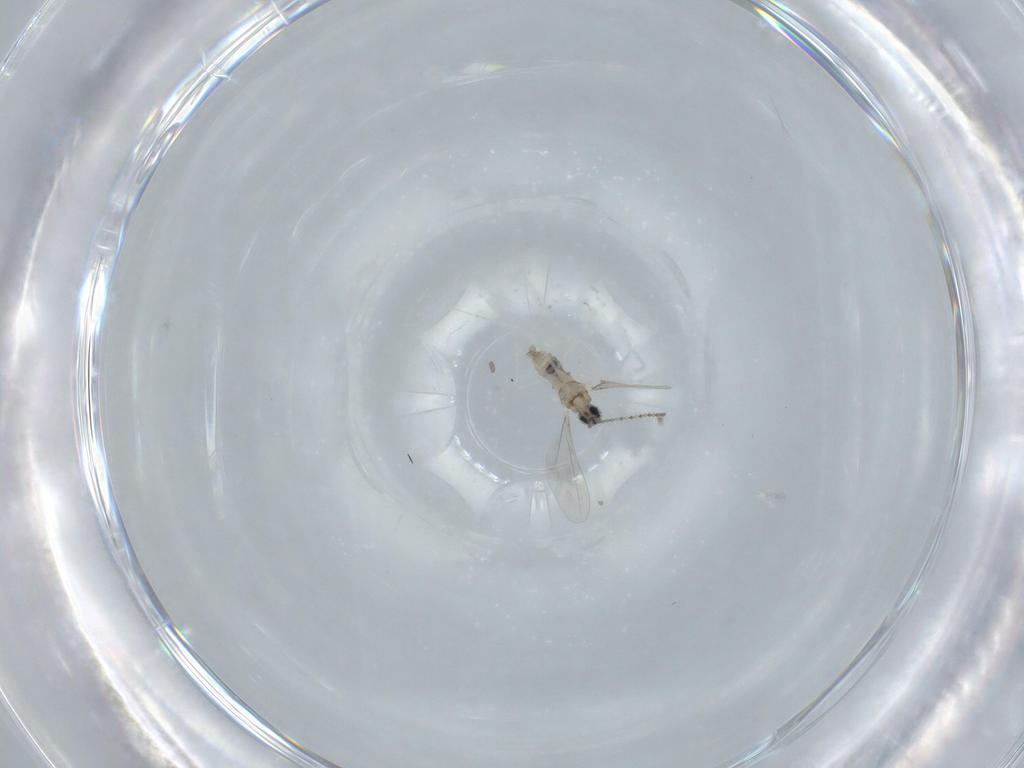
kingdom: Animalia
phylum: Arthropoda
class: Insecta
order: Diptera
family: Cecidomyiidae
